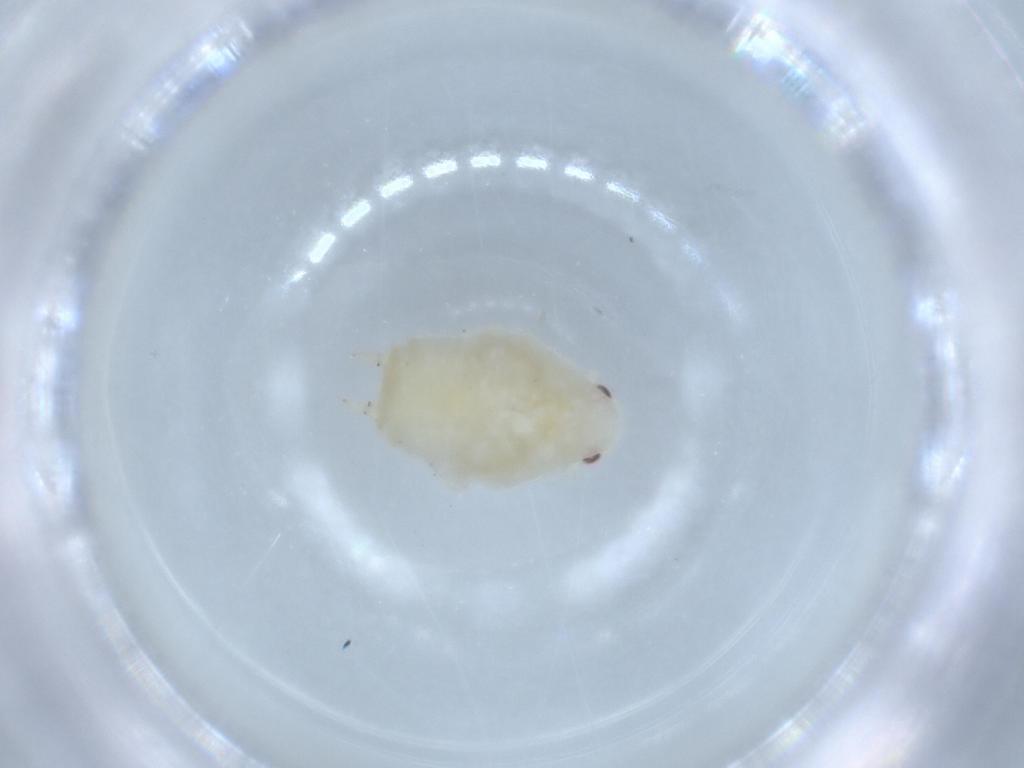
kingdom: Animalia
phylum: Arthropoda
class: Insecta
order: Hemiptera
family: Flatidae
